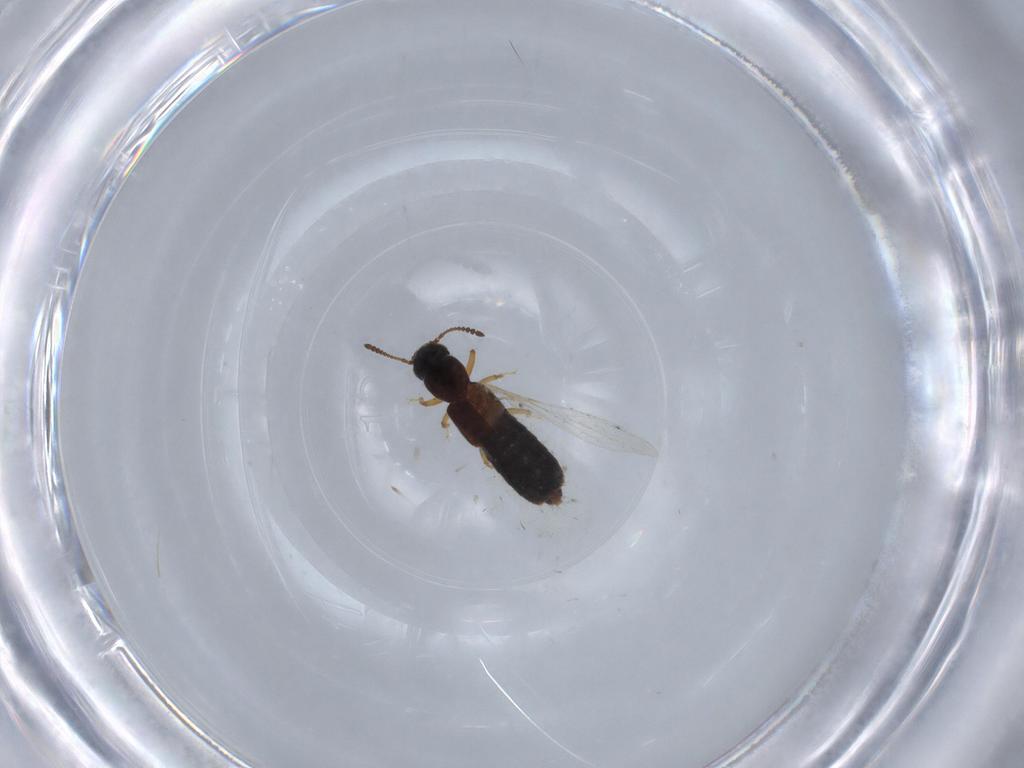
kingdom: Animalia
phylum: Arthropoda
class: Insecta
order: Coleoptera
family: Staphylinidae
